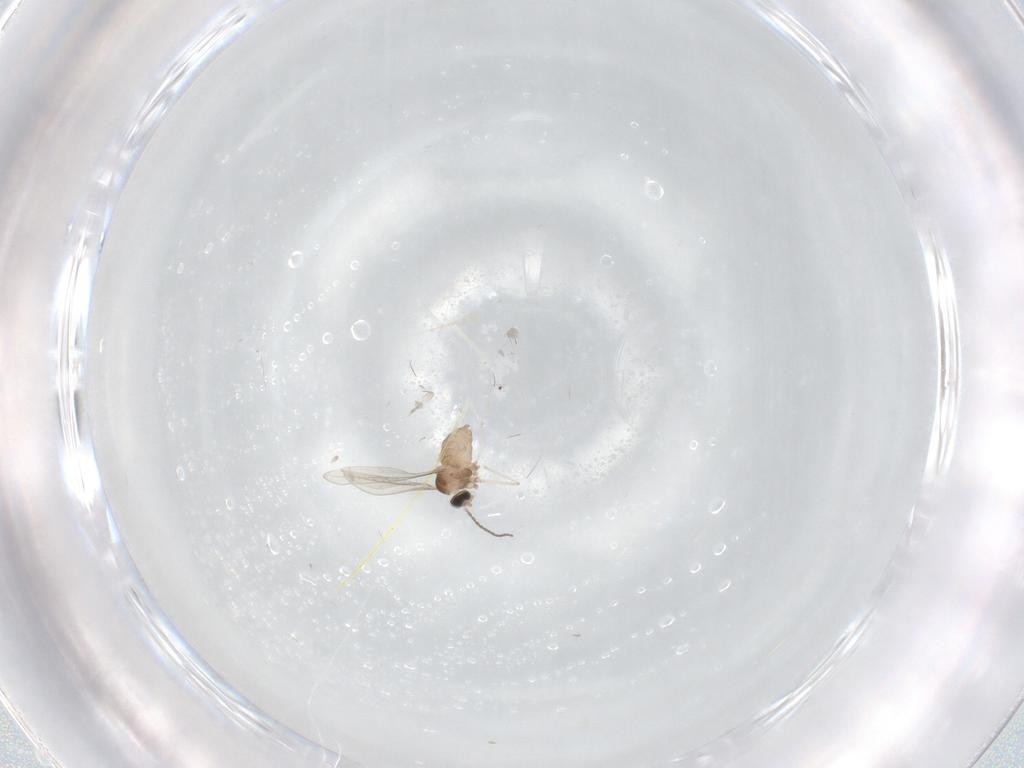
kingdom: Animalia
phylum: Arthropoda
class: Insecta
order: Diptera
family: Cecidomyiidae
